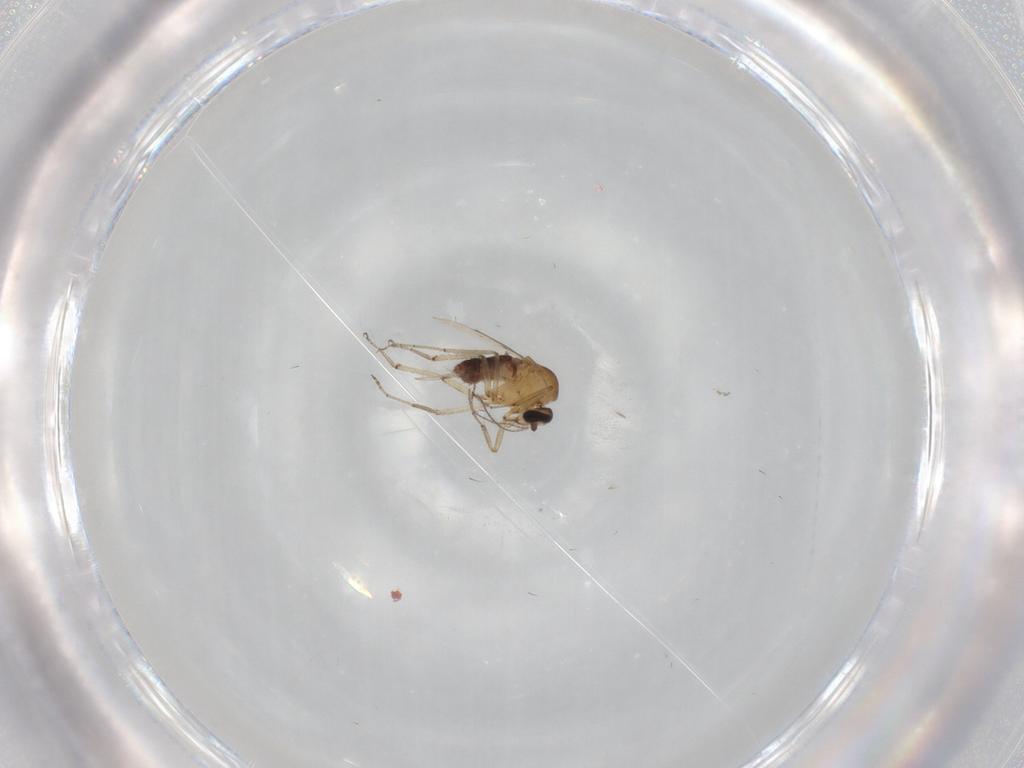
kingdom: Animalia
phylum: Arthropoda
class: Insecta
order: Diptera
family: Ceratopogonidae
